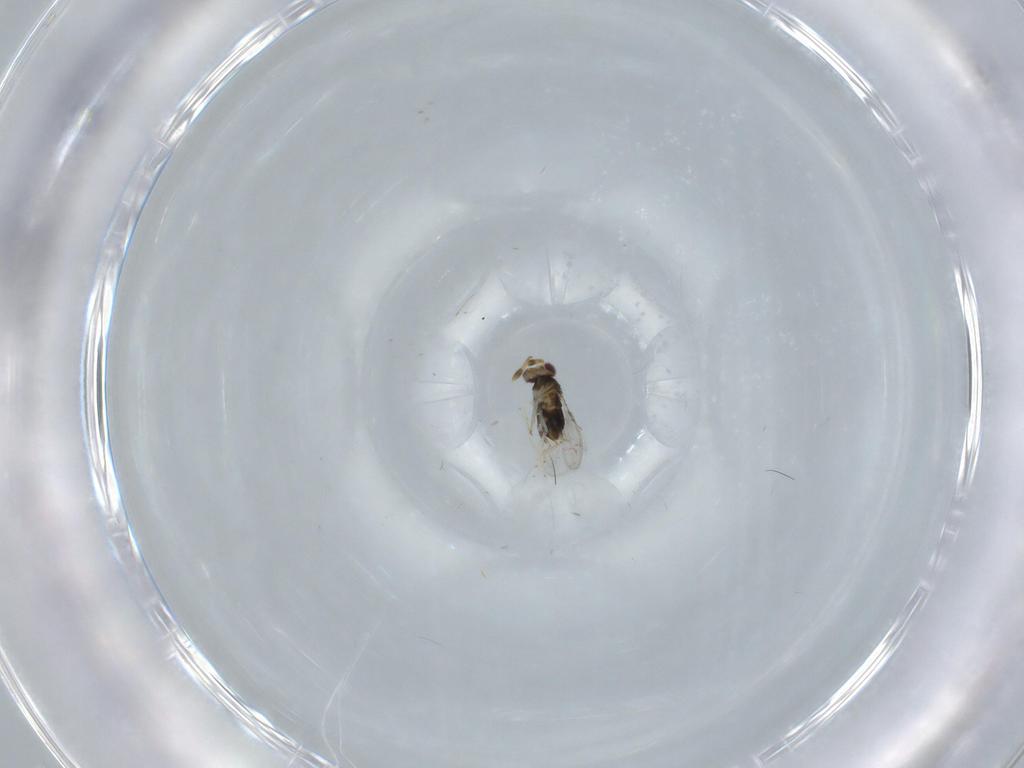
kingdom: Animalia
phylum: Arthropoda
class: Insecta
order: Hymenoptera
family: Aphelinidae
